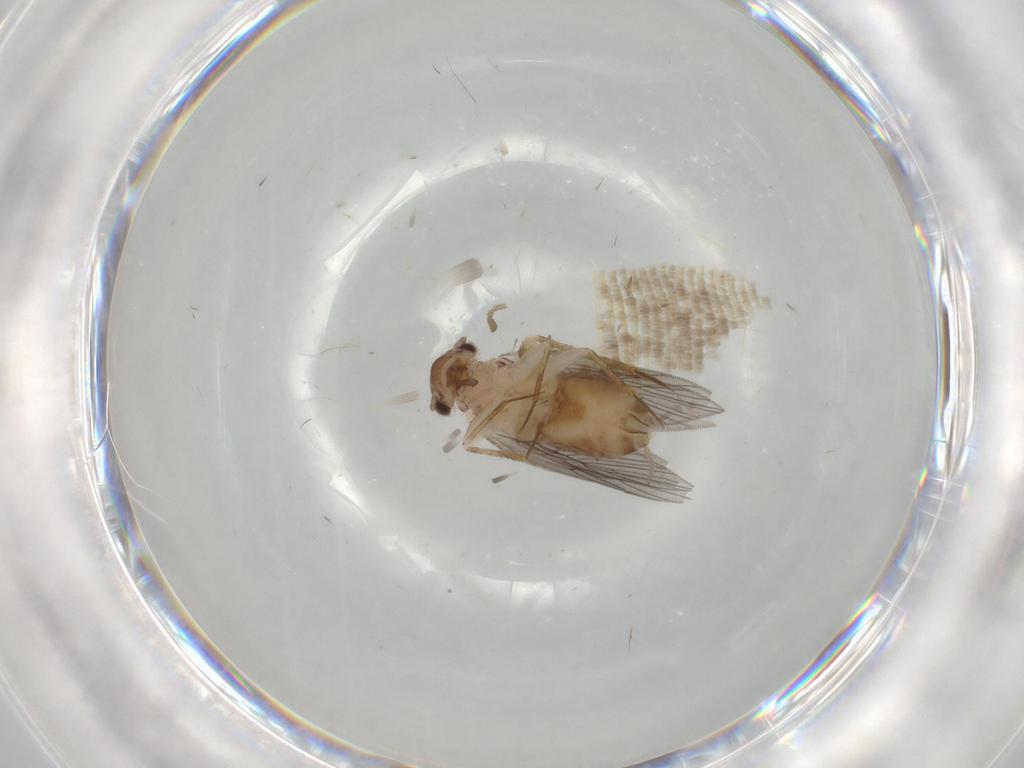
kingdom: Animalia
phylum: Arthropoda
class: Insecta
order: Psocodea
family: Lepidopsocidae
